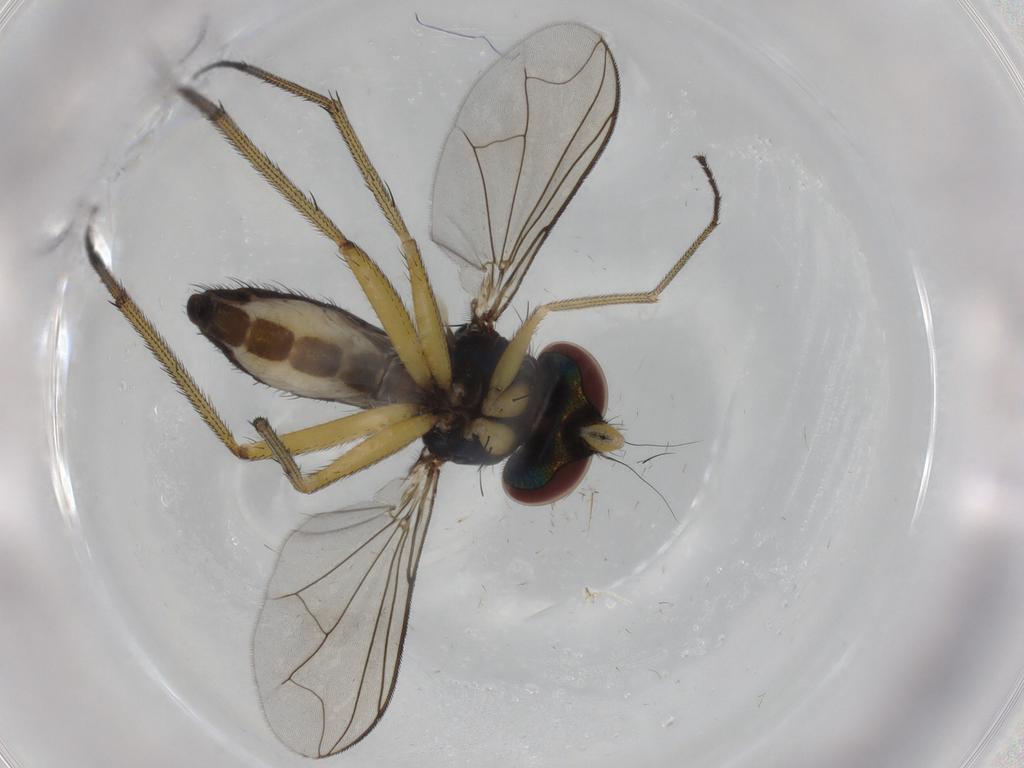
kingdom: Animalia
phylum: Arthropoda
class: Insecta
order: Diptera
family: Dolichopodidae
